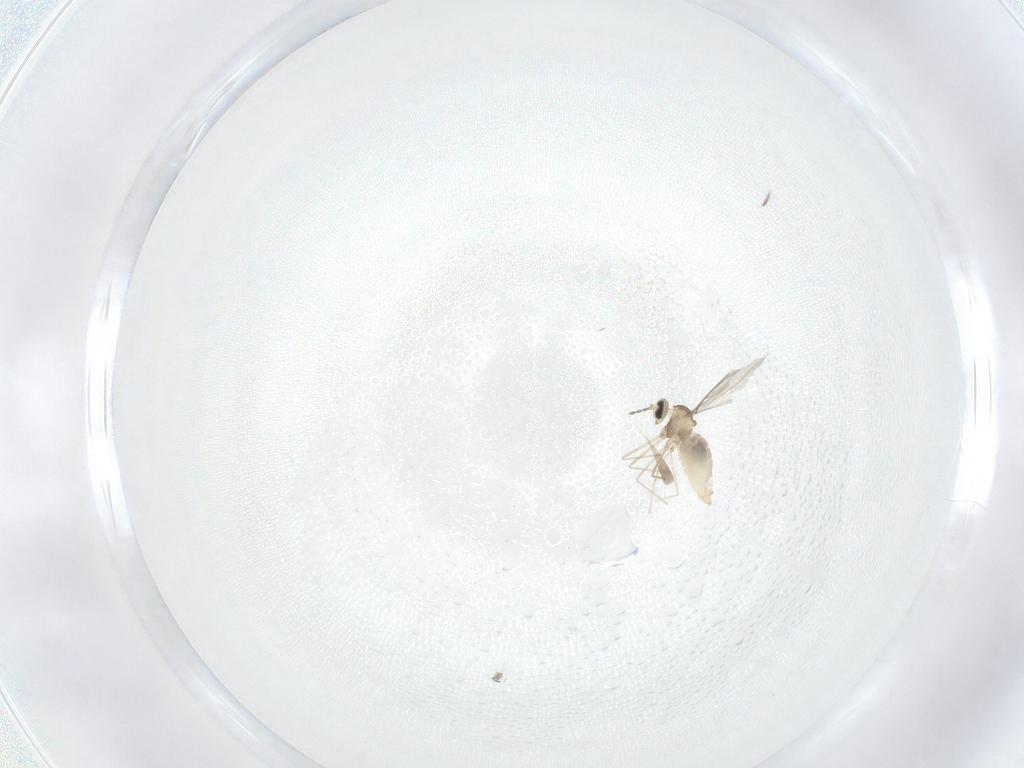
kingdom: Animalia
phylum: Arthropoda
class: Insecta
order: Diptera
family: Cecidomyiidae
